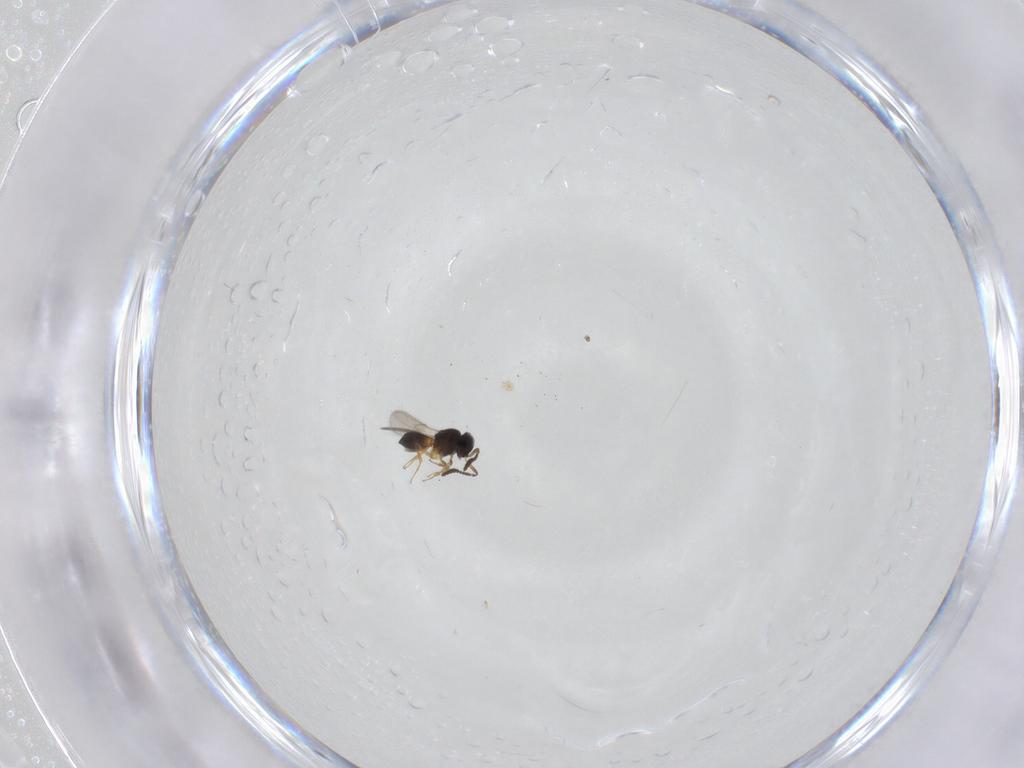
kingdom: Animalia
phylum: Arthropoda
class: Insecta
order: Hymenoptera
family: Scelionidae
